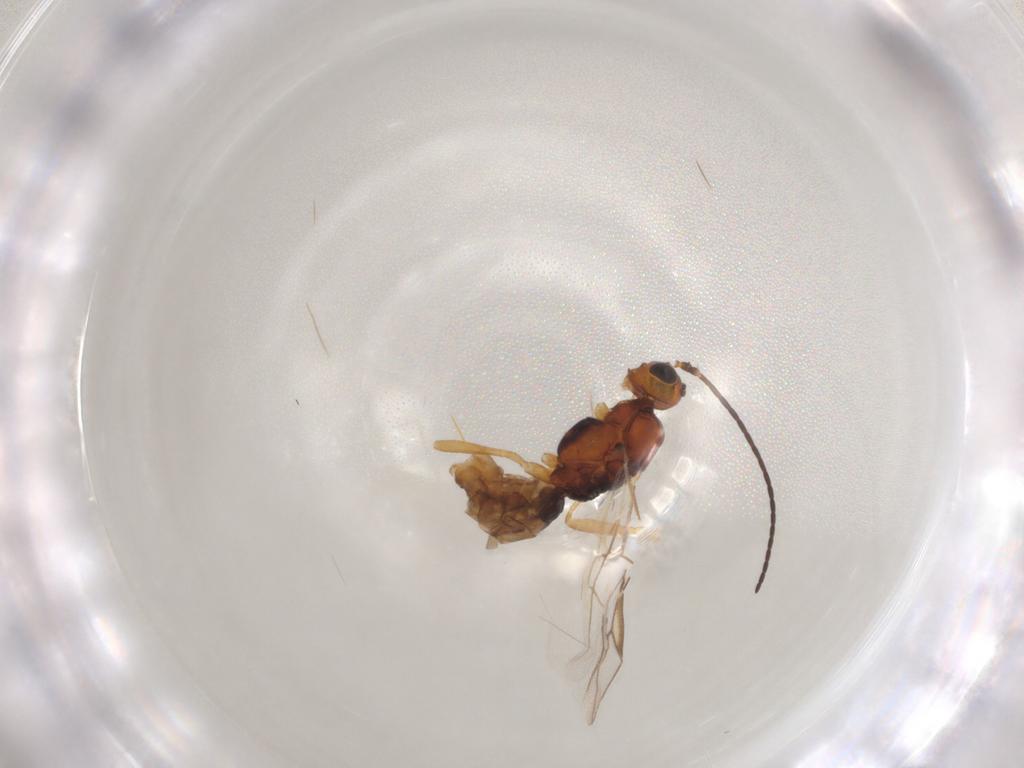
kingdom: Animalia
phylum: Arthropoda
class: Insecta
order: Hymenoptera
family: Braconidae
